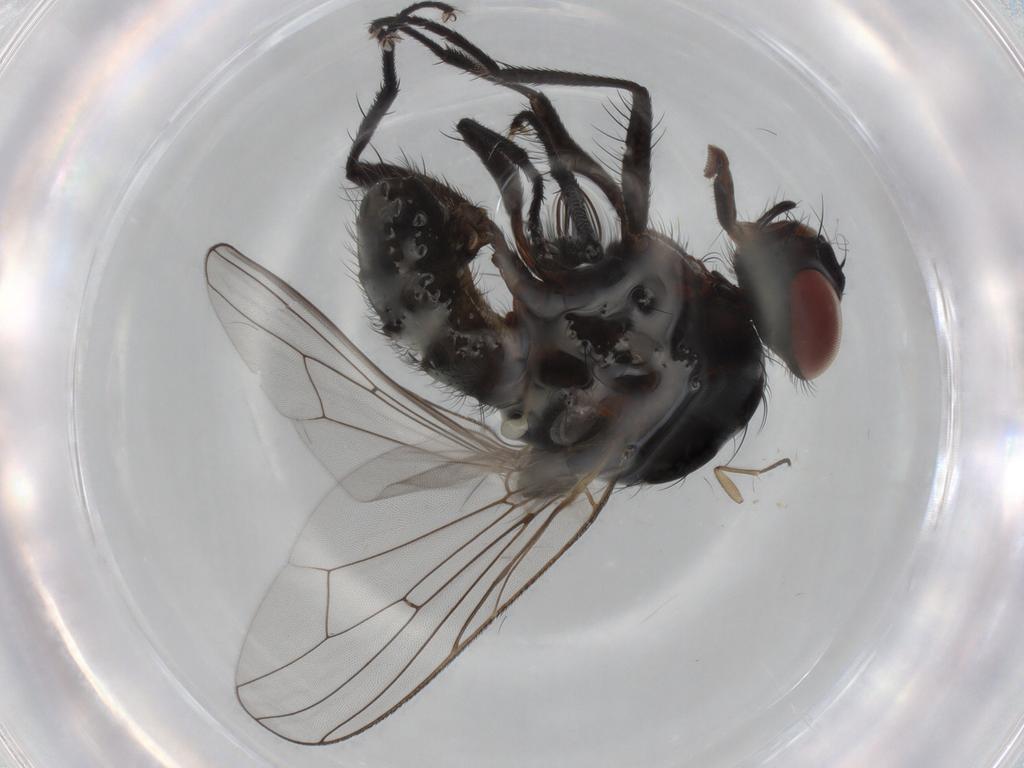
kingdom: Animalia
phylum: Arthropoda
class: Insecta
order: Diptera
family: Anthomyiidae
